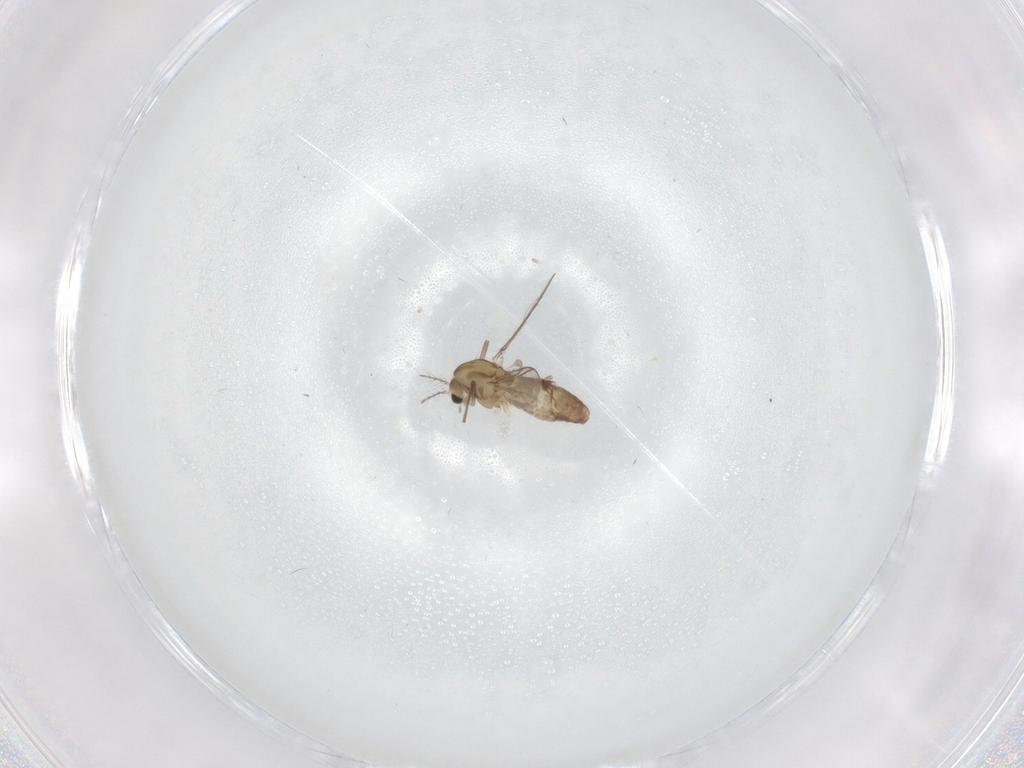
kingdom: Animalia
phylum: Arthropoda
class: Insecta
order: Diptera
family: Chironomidae
